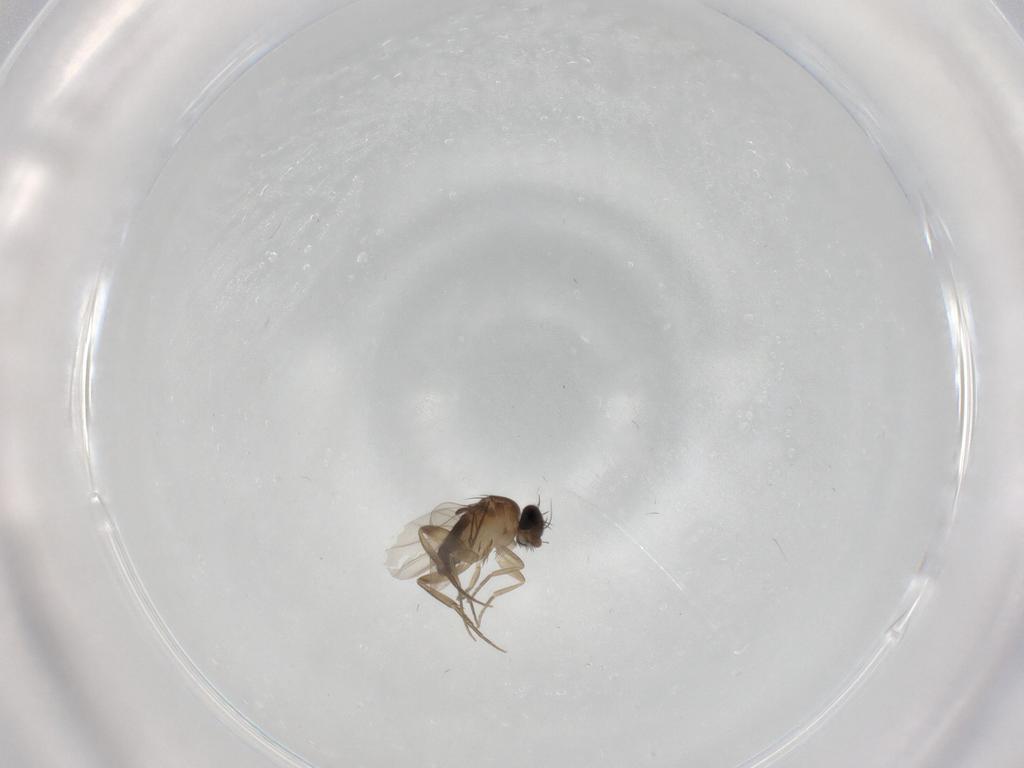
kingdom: Animalia
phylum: Arthropoda
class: Insecta
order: Diptera
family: Phoridae
